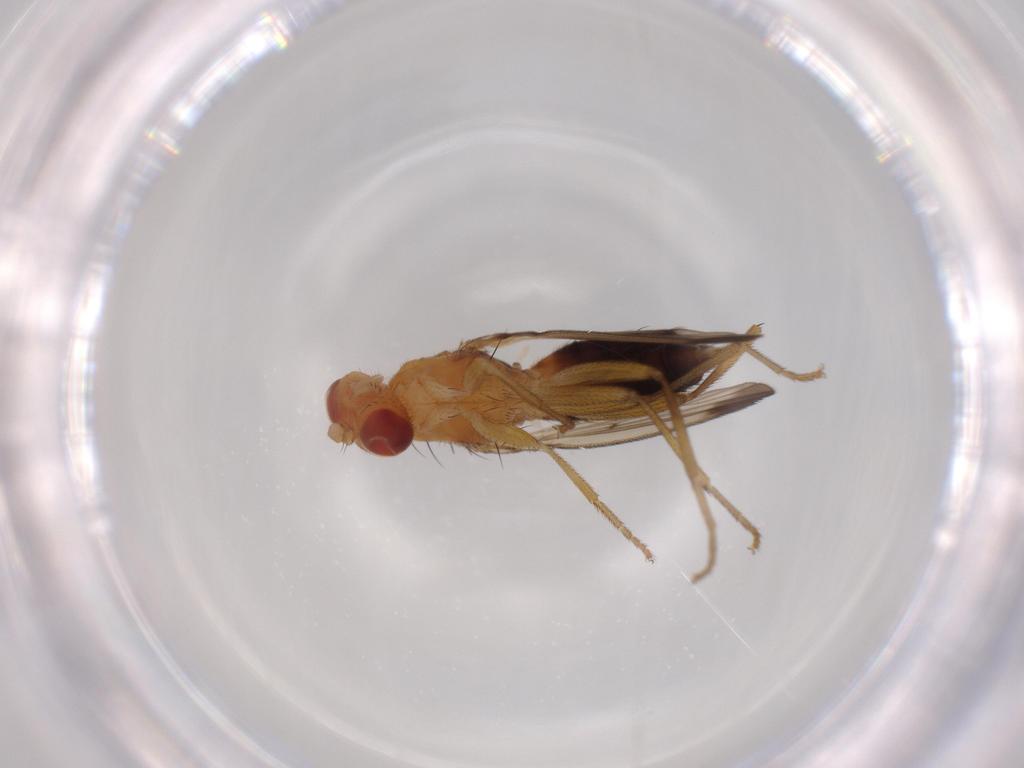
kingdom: Animalia
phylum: Arthropoda
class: Insecta
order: Diptera
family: Opomyzidae
